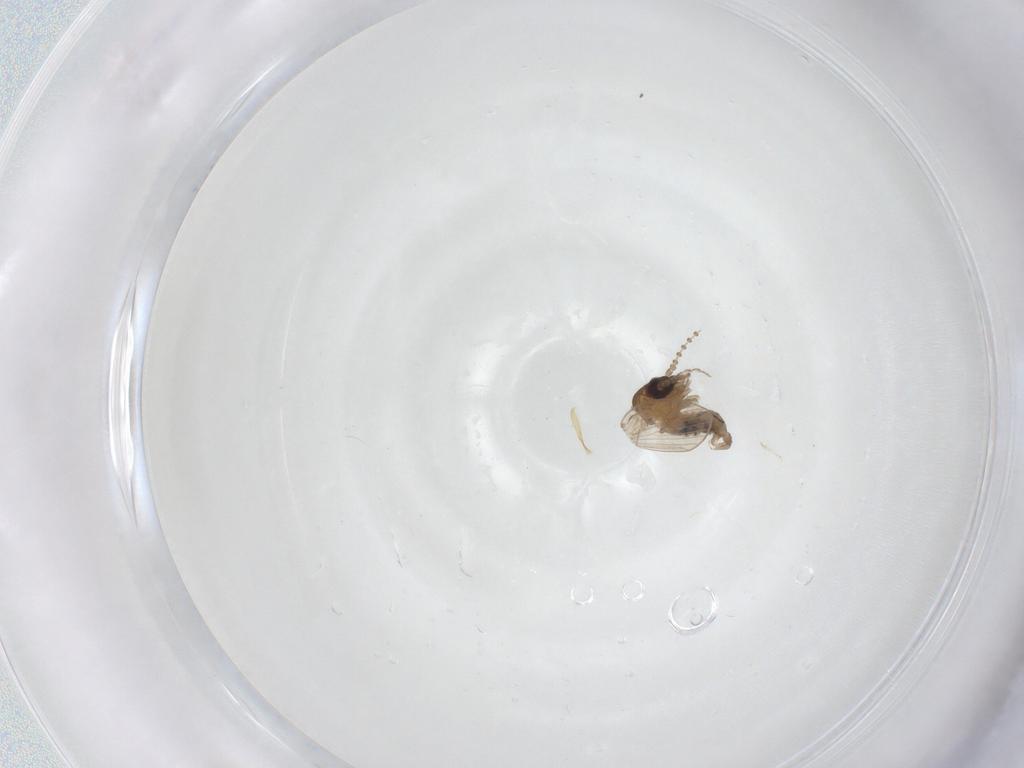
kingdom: Animalia
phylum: Arthropoda
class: Insecta
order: Diptera
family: Psychodidae
